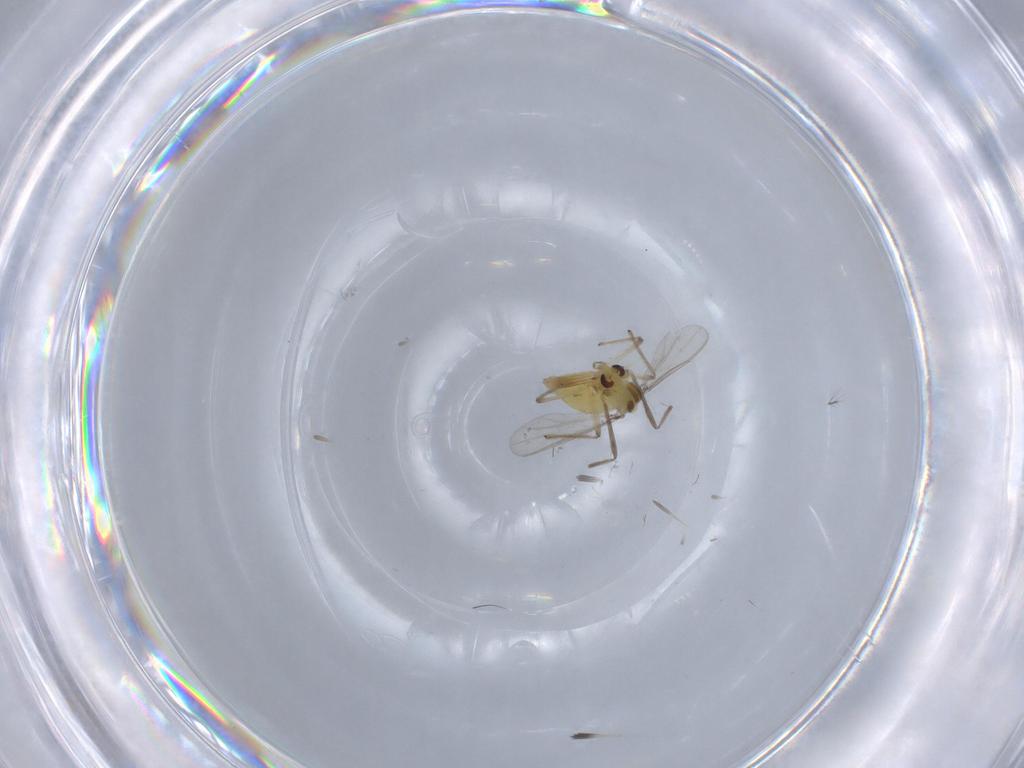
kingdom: Animalia
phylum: Arthropoda
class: Insecta
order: Diptera
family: Chironomidae
